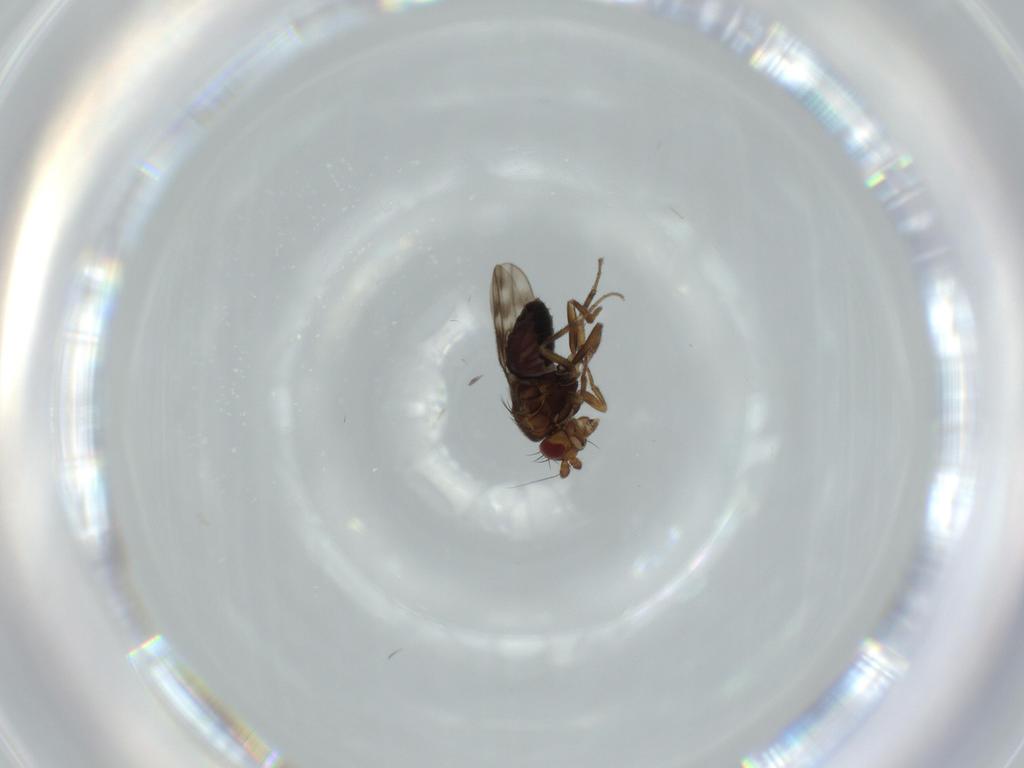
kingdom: Animalia
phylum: Arthropoda
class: Insecta
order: Diptera
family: Sphaeroceridae
